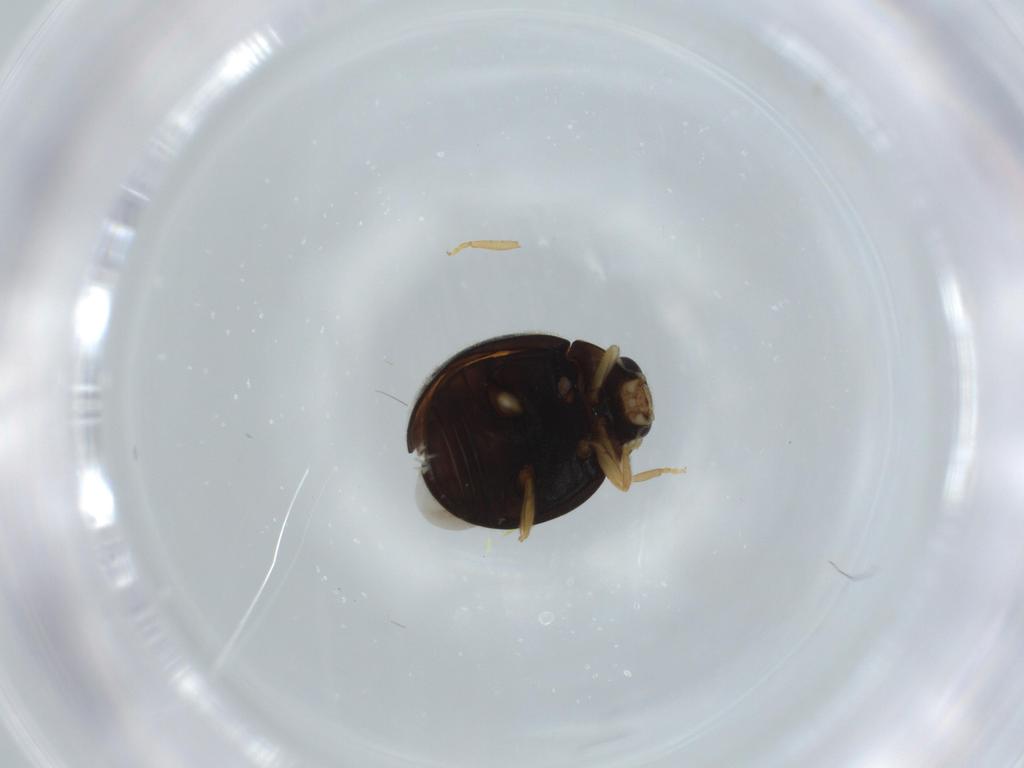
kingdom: Animalia
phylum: Arthropoda
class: Insecta
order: Coleoptera
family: Coccinellidae
